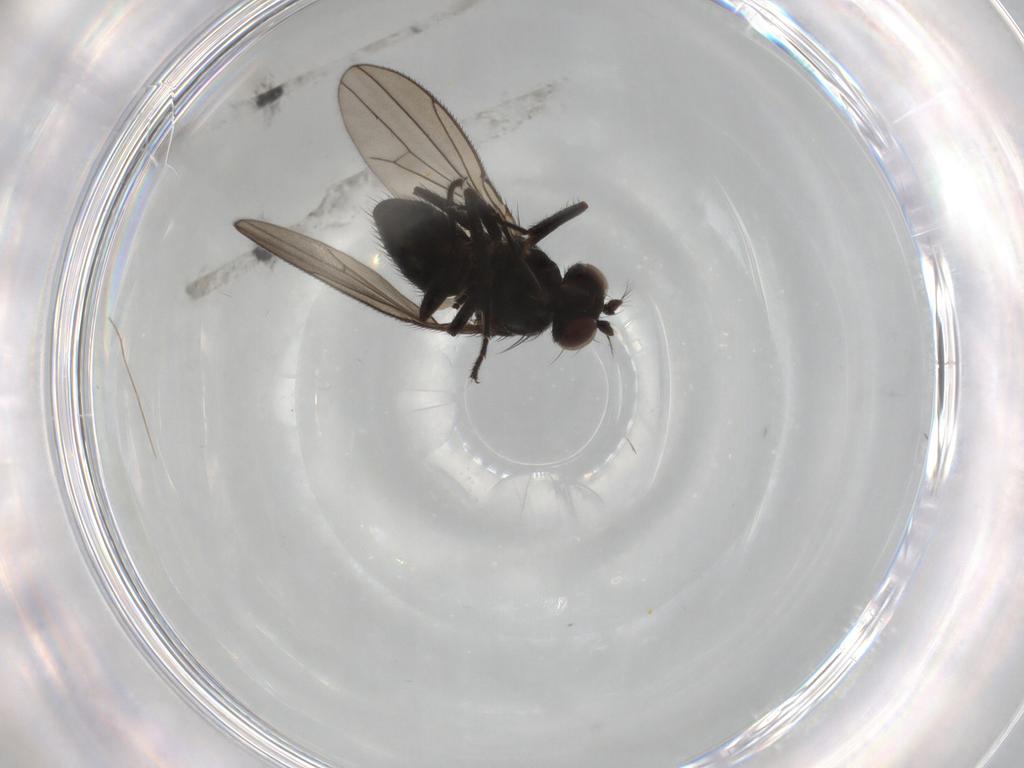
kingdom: Animalia
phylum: Arthropoda
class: Insecta
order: Diptera
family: Ephydridae
